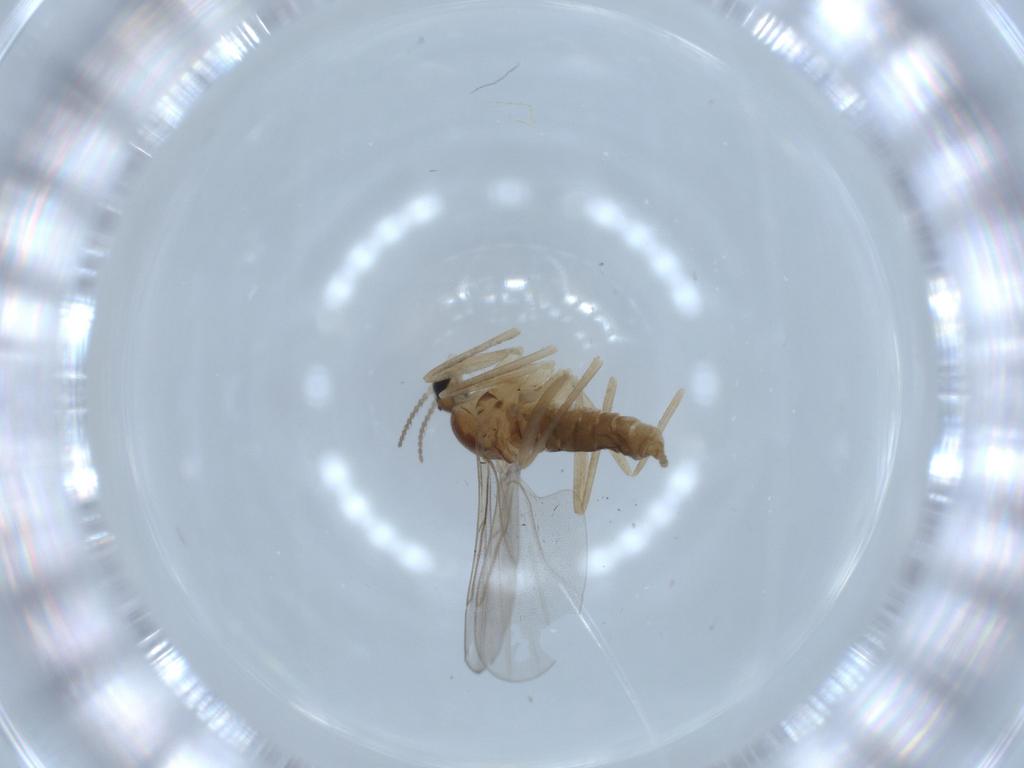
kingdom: Animalia
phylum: Arthropoda
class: Insecta
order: Diptera
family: Cecidomyiidae
